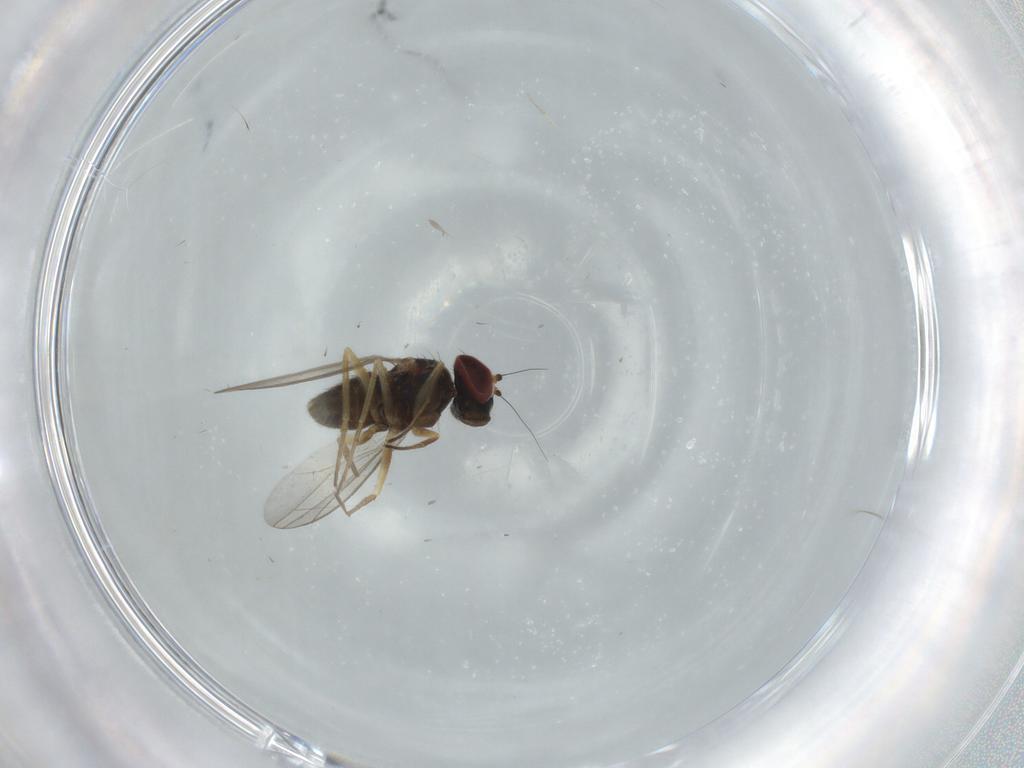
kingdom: Animalia
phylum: Arthropoda
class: Insecta
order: Diptera
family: Dolichopodidae
